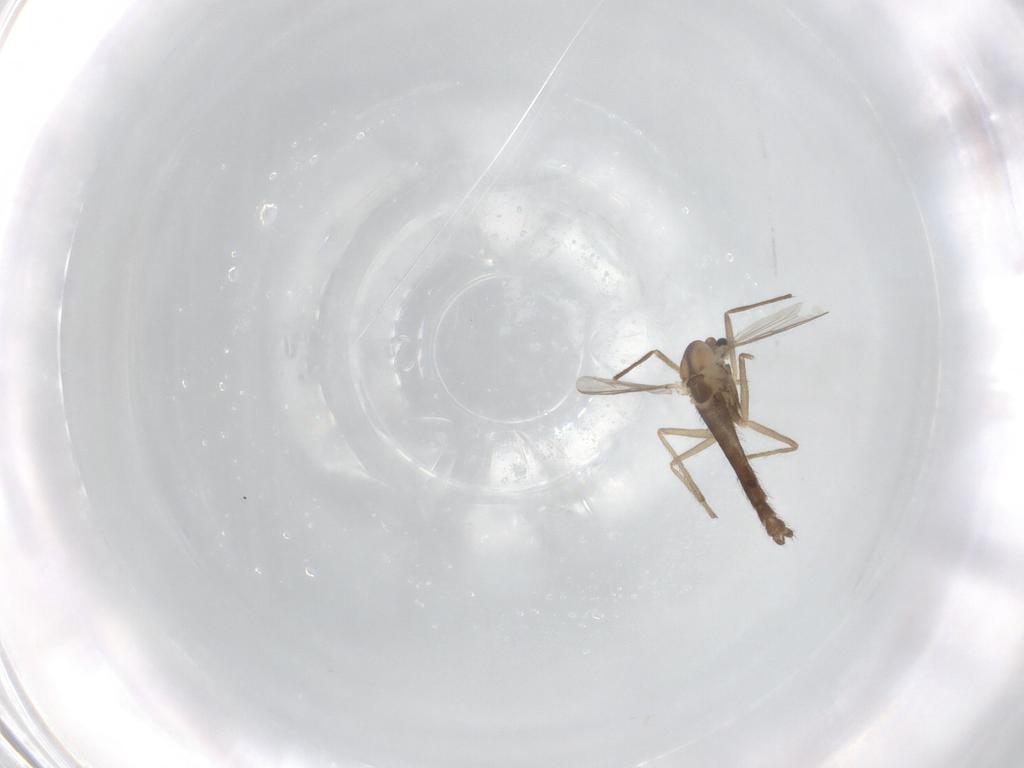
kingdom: Animalia
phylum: Arthropoda
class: Insecta
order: Diptera
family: Chironomidae
